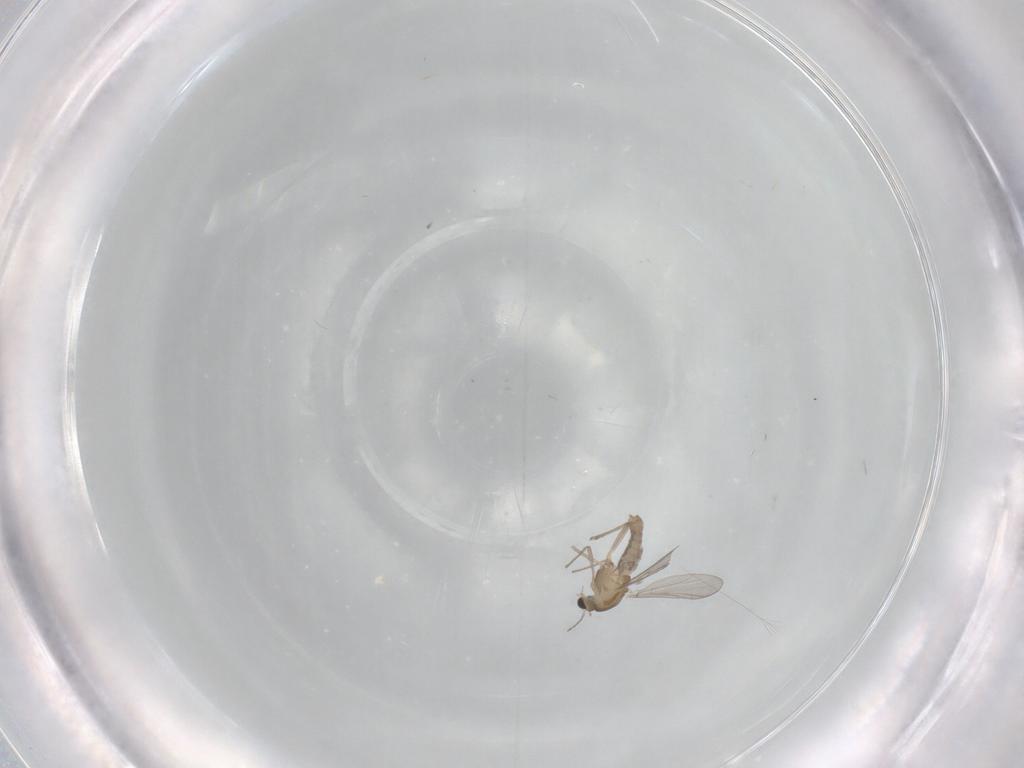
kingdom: Animalia
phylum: Arthropoda
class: Insecta
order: Diptera
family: Chironomidae
